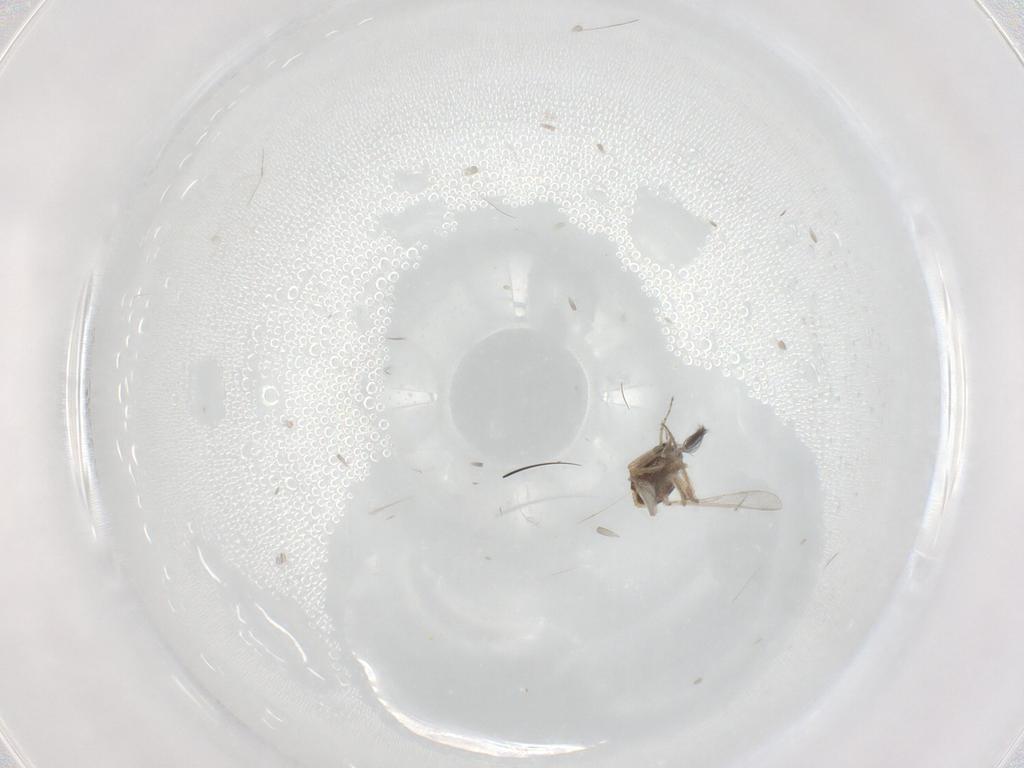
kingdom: Animalia
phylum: Arthropoda
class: Insecta
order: Diptera
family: Ceratopogonidae
